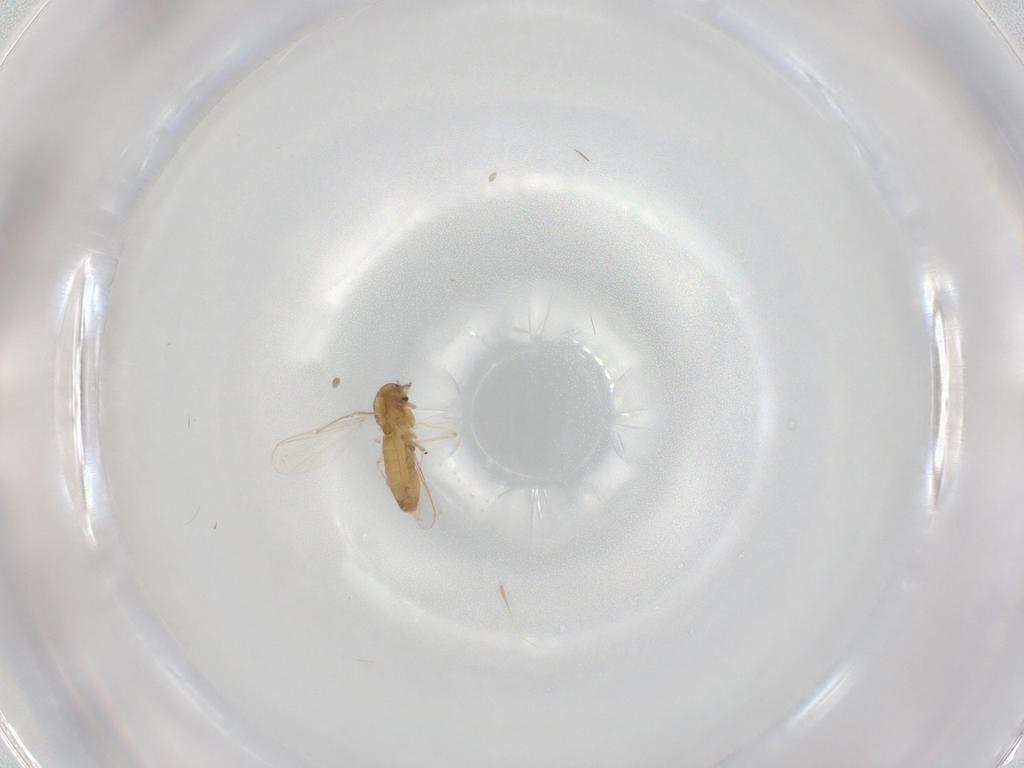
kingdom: Animalia
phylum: Arthropoda
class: Insecta
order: Diptera
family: Chironomidae
